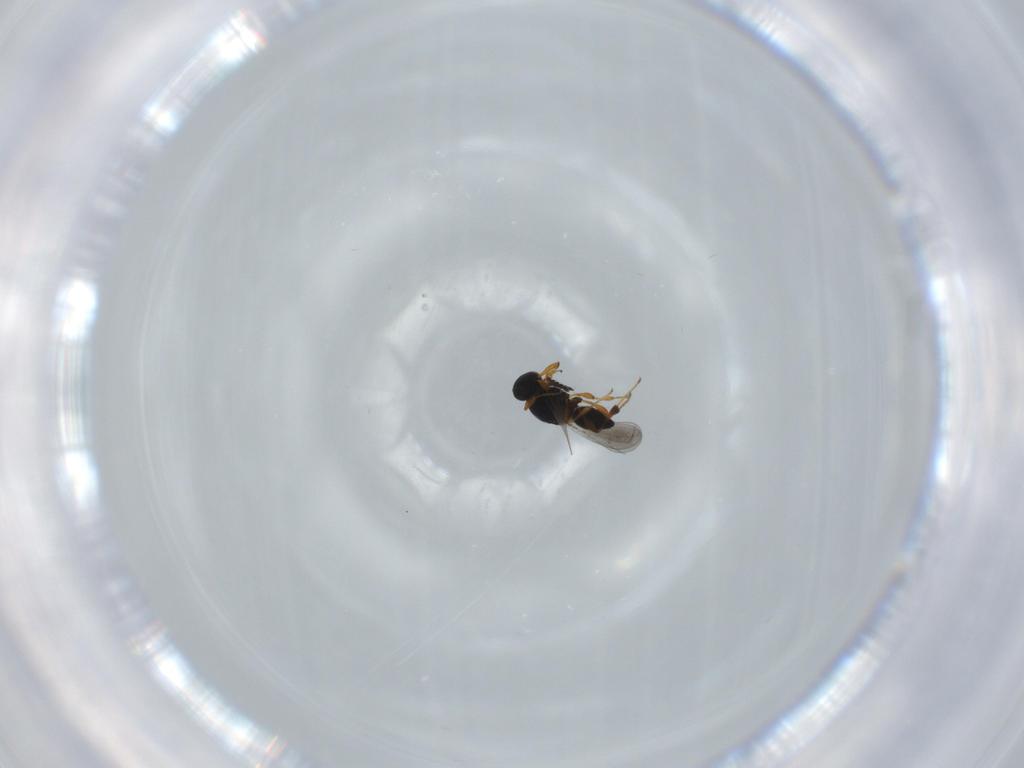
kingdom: Animalia
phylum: Arthropoda
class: Insecta
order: Hymenoptera
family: Platygastridae
